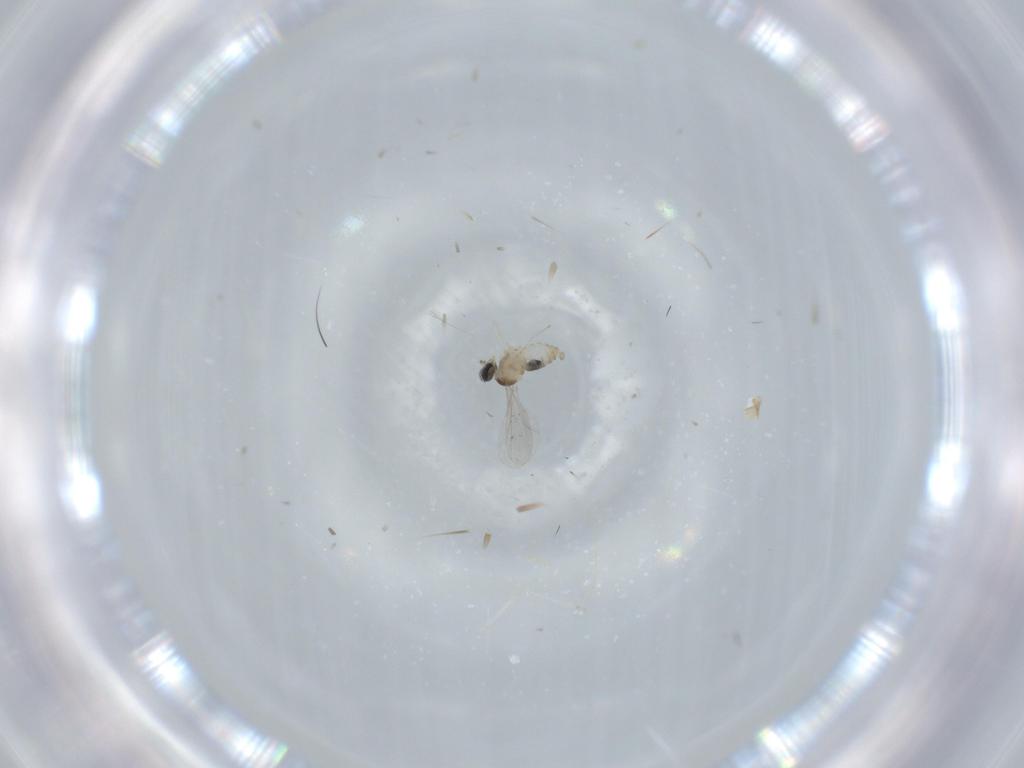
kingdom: Animalia
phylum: Arthropoda
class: Insecta
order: Diptera
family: Cecidomyiidae
